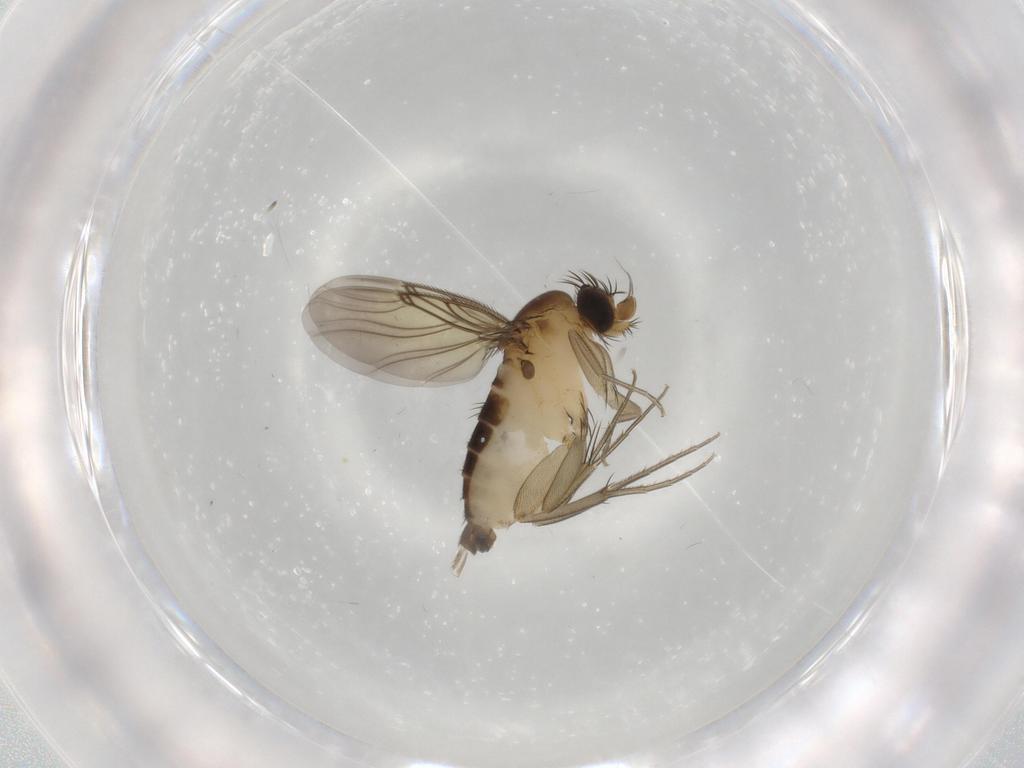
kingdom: Animalia
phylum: Arthropoda
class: Insecta
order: Diptera
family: Phoridae
